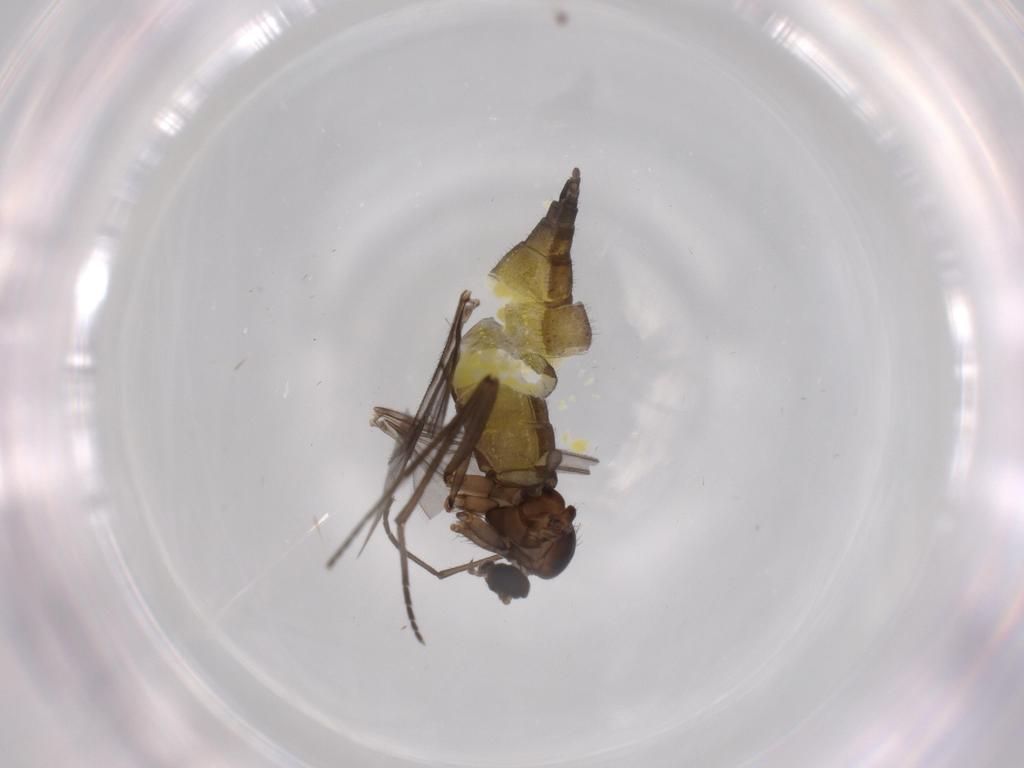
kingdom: Animalia
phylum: Arthropoda
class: Insecta
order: Diptera
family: Sciaridae
